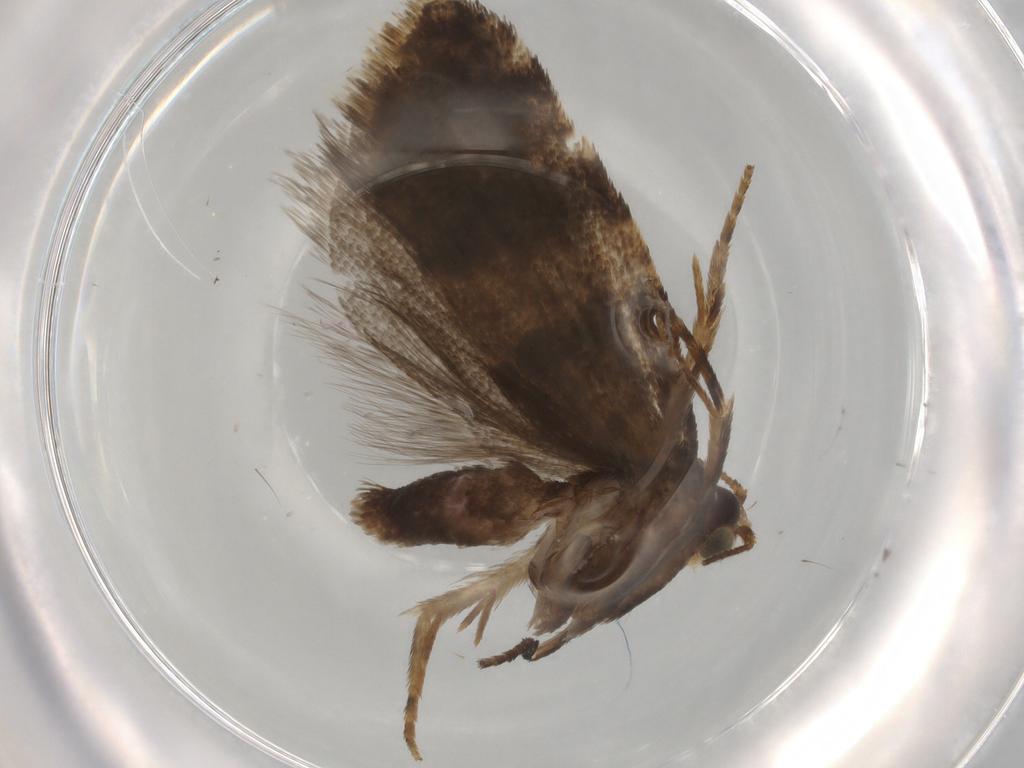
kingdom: Animalia
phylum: Arthropoda
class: Insecta
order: Lepidoptera
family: Tortricidae
